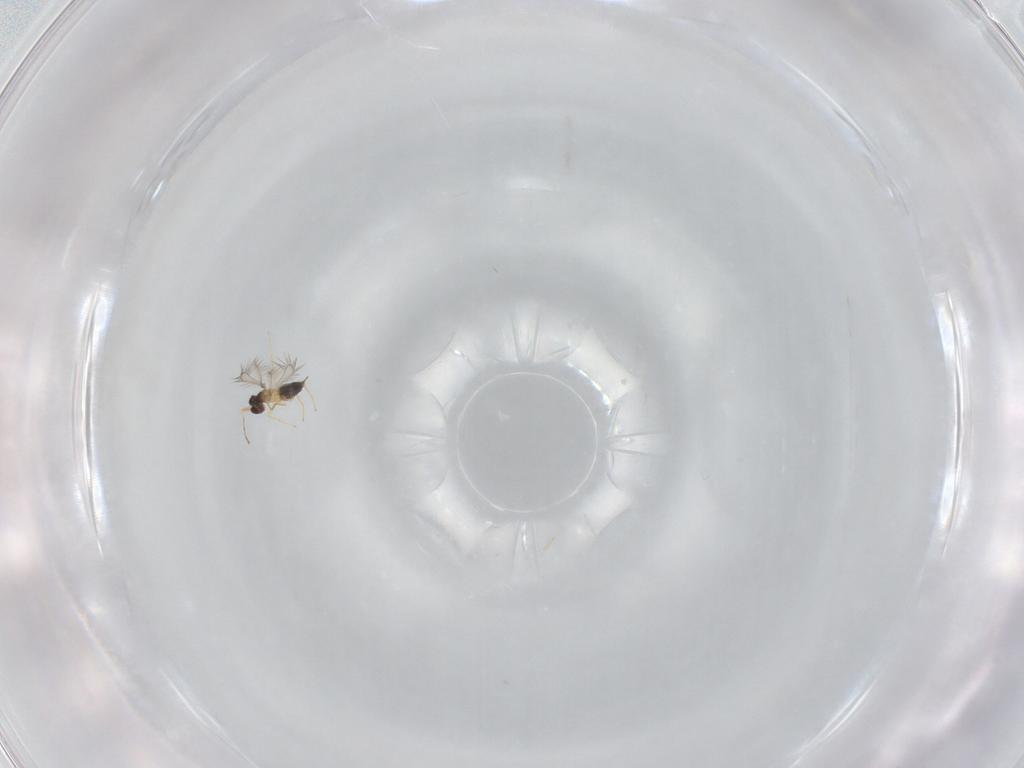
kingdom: Animalia
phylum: Arthropoda
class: Insecta
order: Hymenoptera
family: Mymaridae
